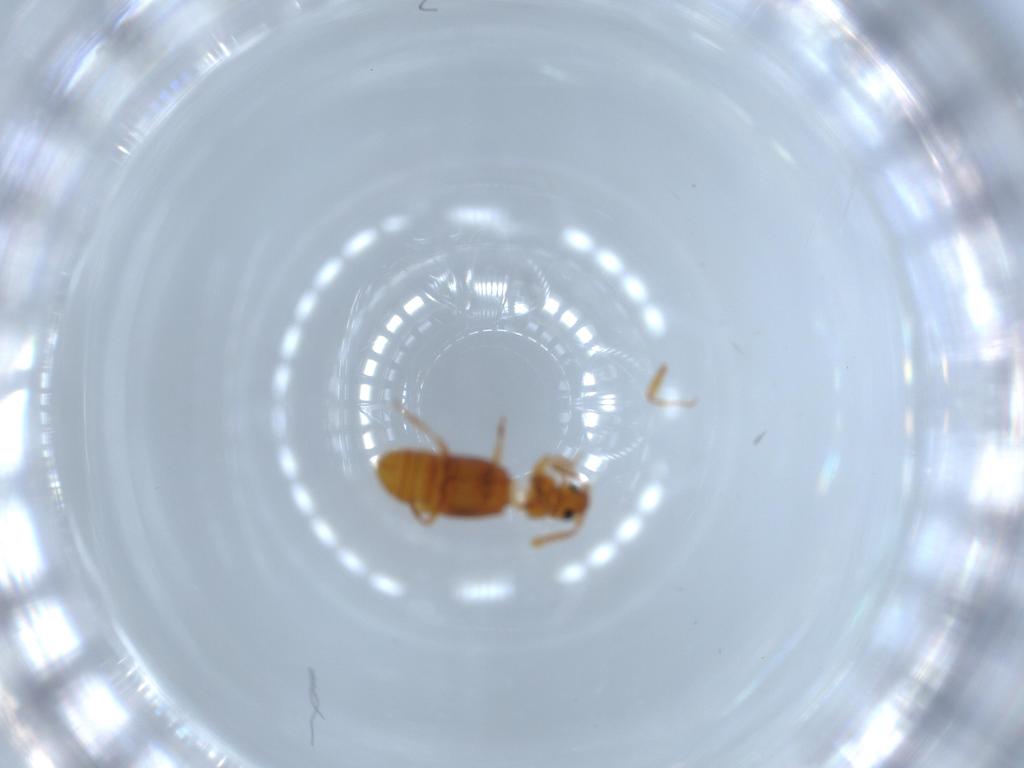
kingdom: Animalia
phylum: Arthropoda
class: Insecta
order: Coleoptera
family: Staphylinidae
